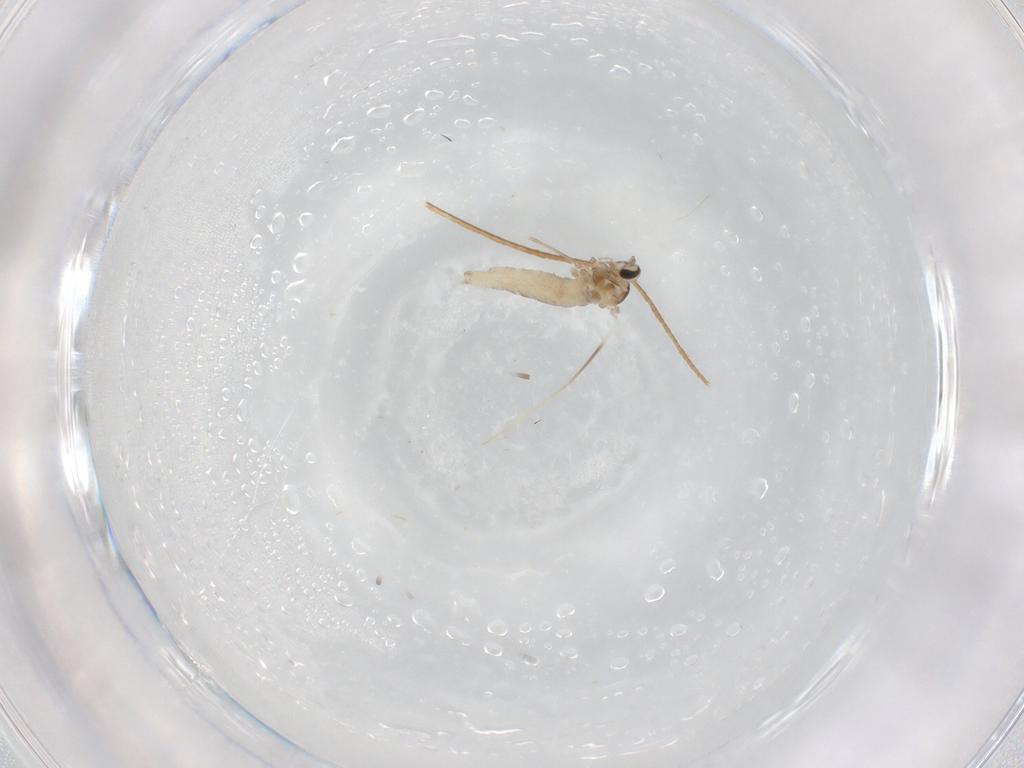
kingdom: Animalia
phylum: Arthropoda
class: Insecta
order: Diptera
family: Cecidomyiidae
